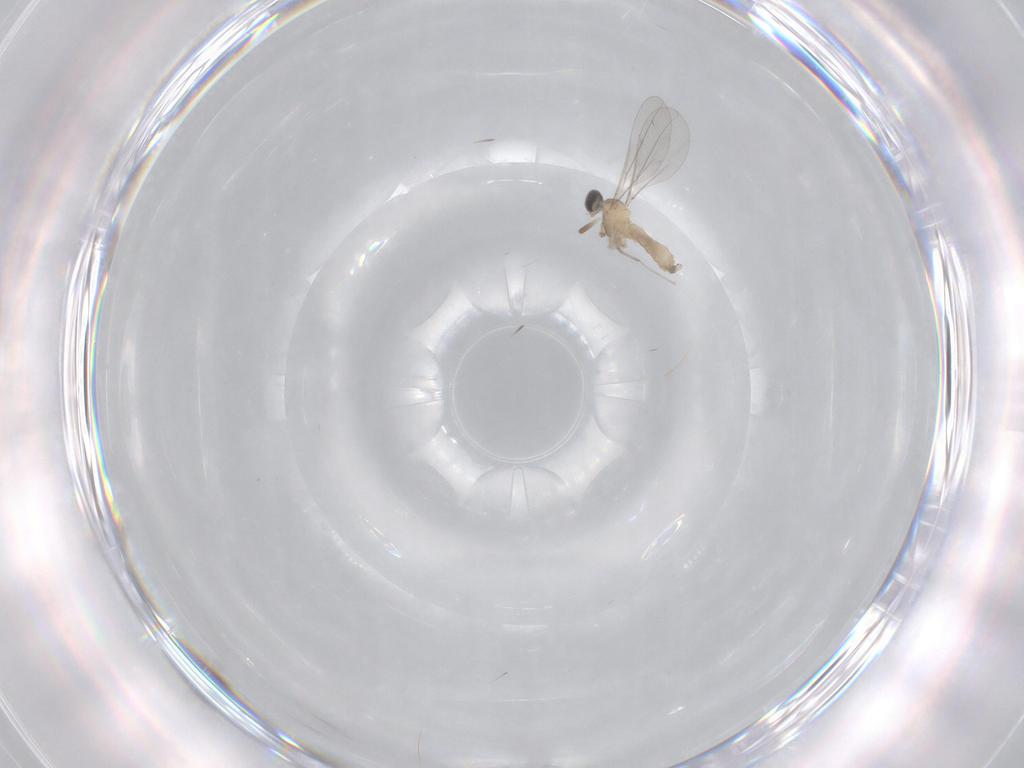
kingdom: Animalia
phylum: Arthropoda
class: Insecta
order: Diptera
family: Cecidomyiidae
